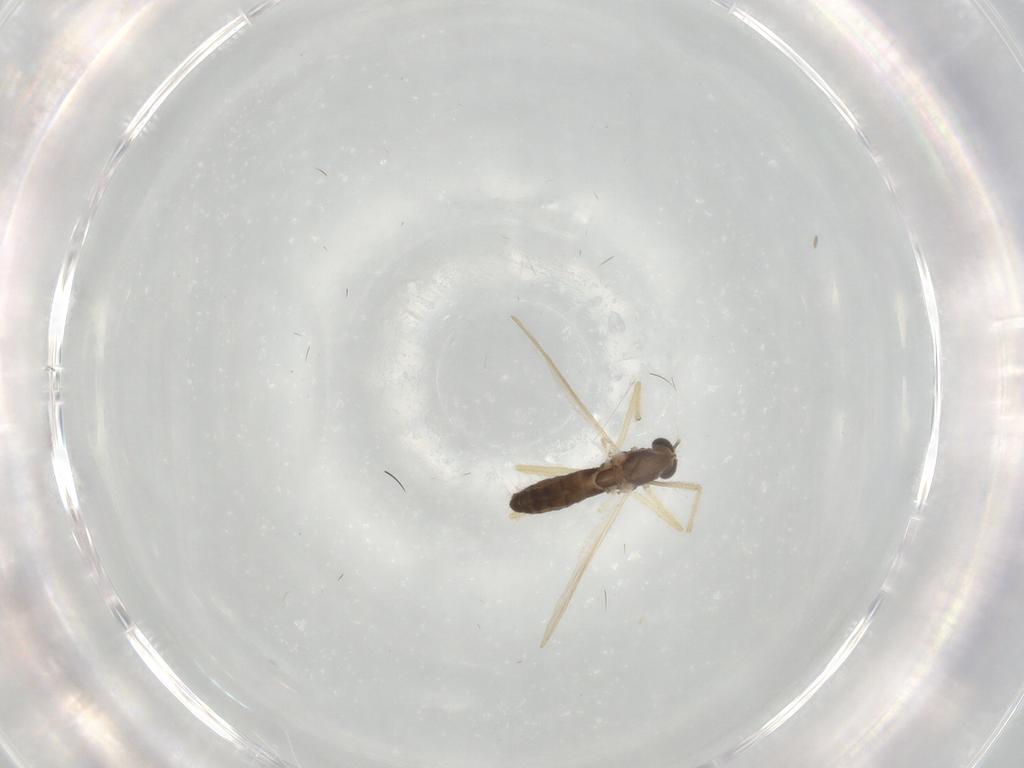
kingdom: Animalia
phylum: Arthropoda
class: Insecta
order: Diptera
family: Chironomidae
